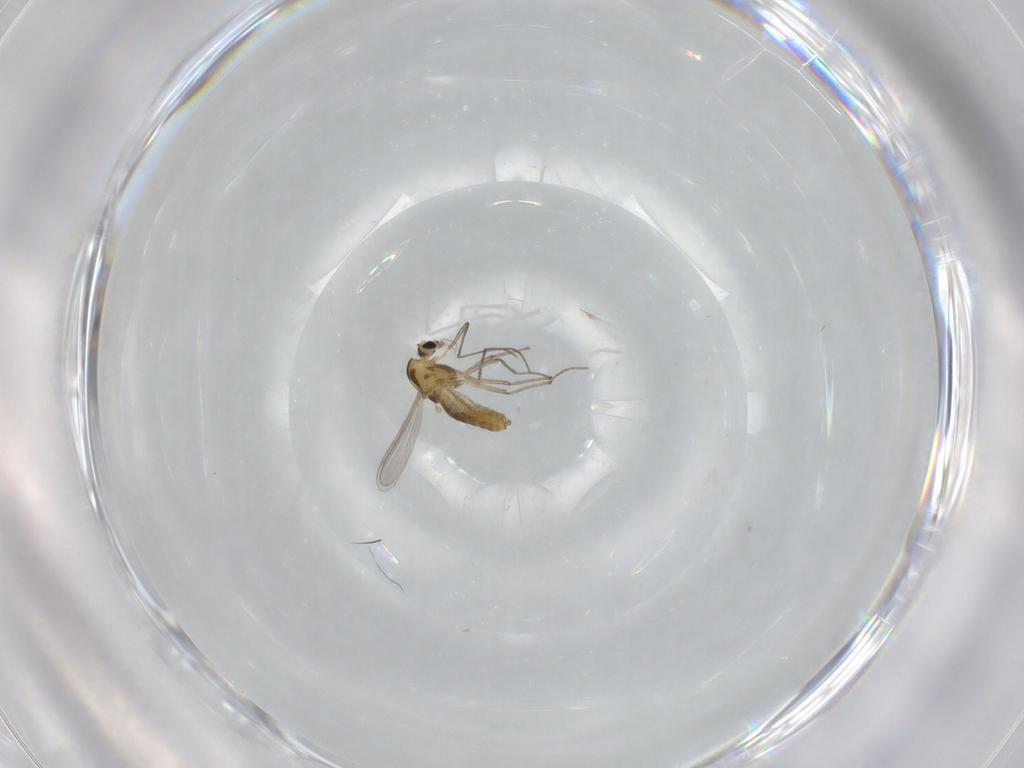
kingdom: Animalia
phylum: Arthropoda
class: Insecta
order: Diptera
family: Chironomidae
